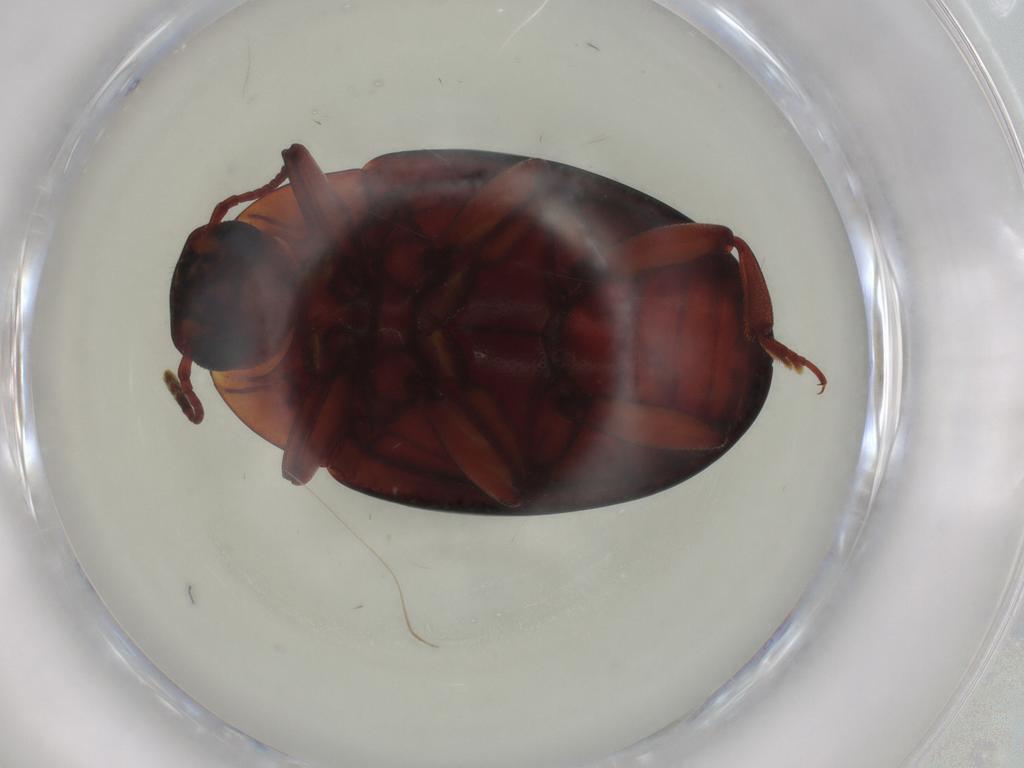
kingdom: Animalia
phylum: Arthropoda
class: Insecta
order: Coleoptera
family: Zopheridae
